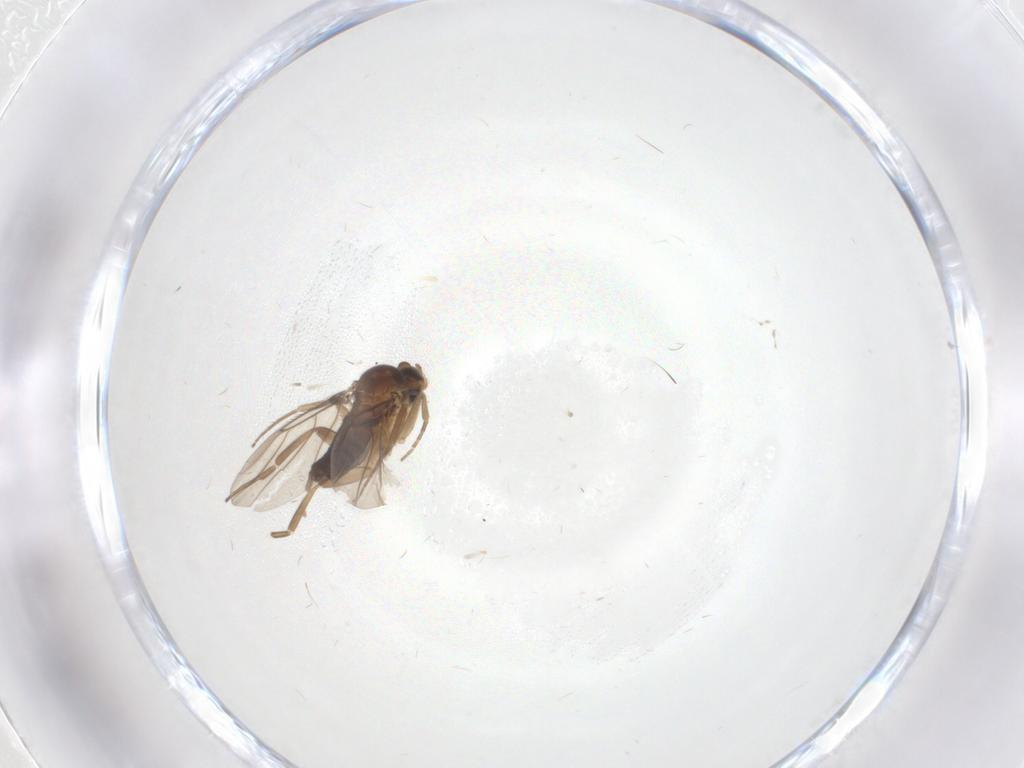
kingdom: Animalia
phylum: Arthropoda
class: Insecta
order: Diptera
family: Cecidomyiidae
